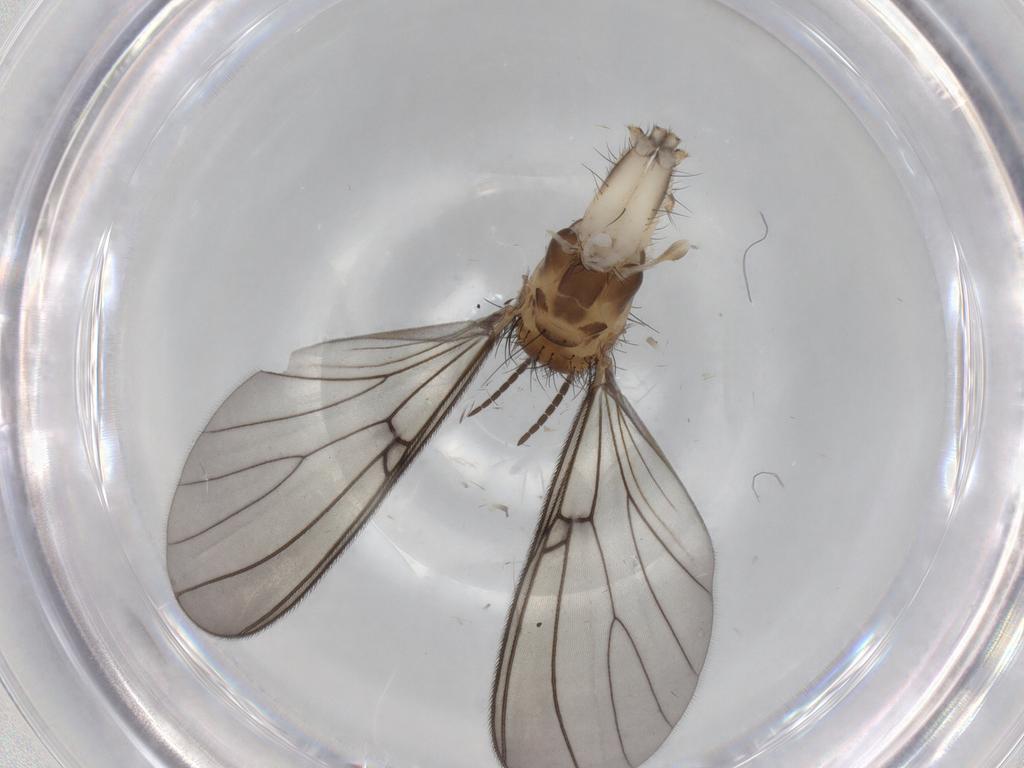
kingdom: Animalia
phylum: Arthropoda
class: Insecta
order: Diptera
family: Mycetophilidae
